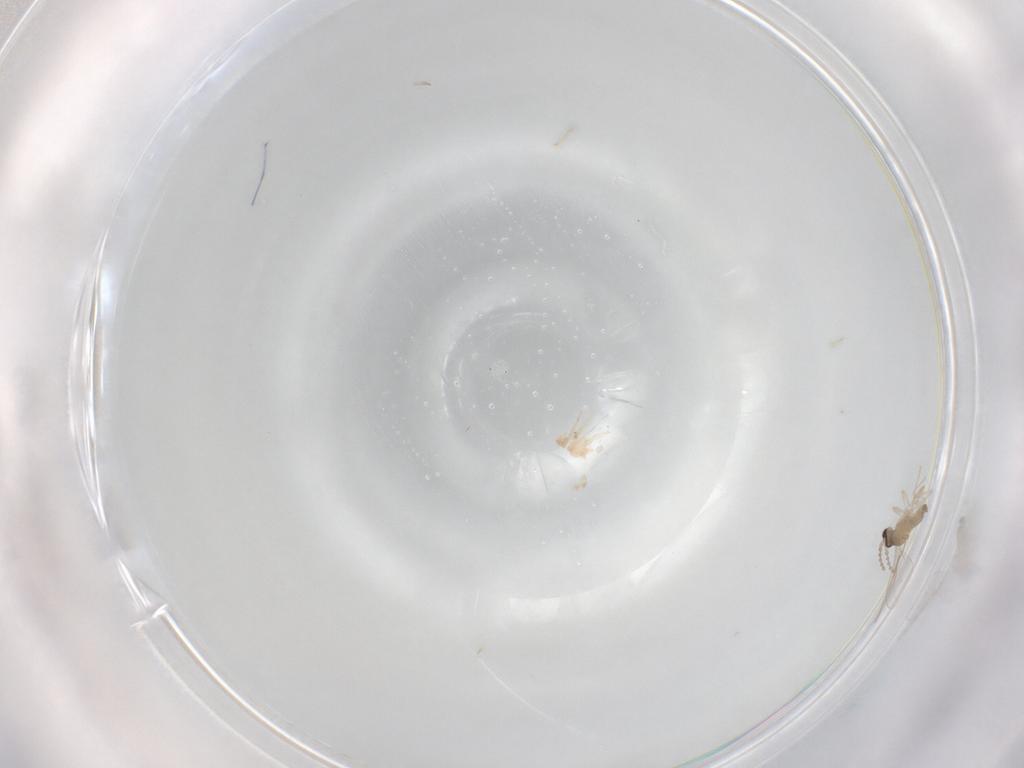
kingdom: Animalia
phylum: Arthropoda
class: Insecta
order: Diptera
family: Cecidomyiidae
